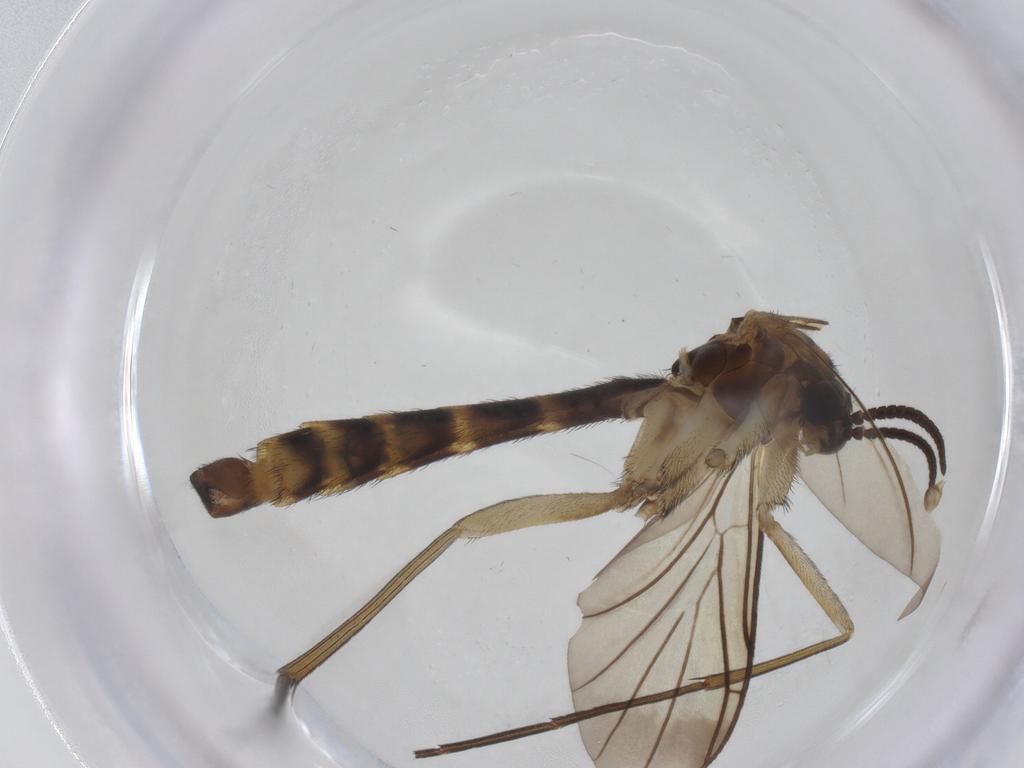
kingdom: Animalia
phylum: Arthropoda
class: Insecta
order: Diptera
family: Keroplatidae
